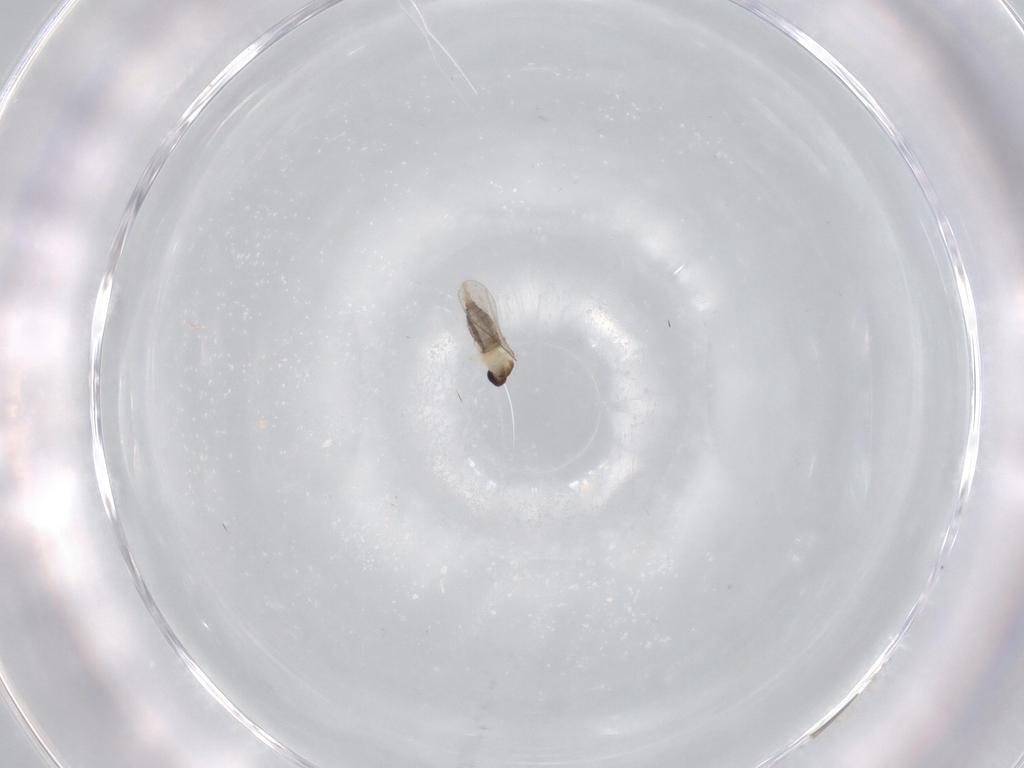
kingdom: Animalia
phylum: Arthropoda
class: Insecta
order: Diptera
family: Cecidomyiidae
